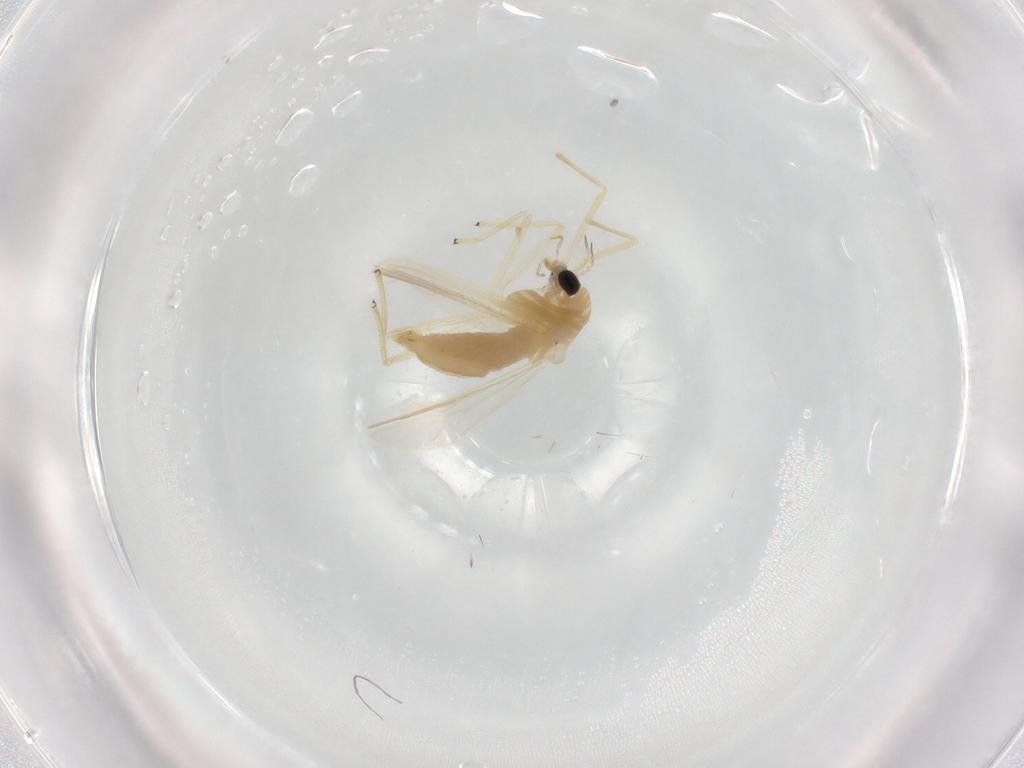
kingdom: Animalia
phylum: Arthropoda
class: Insecta
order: Diptera
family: Chironomidae
